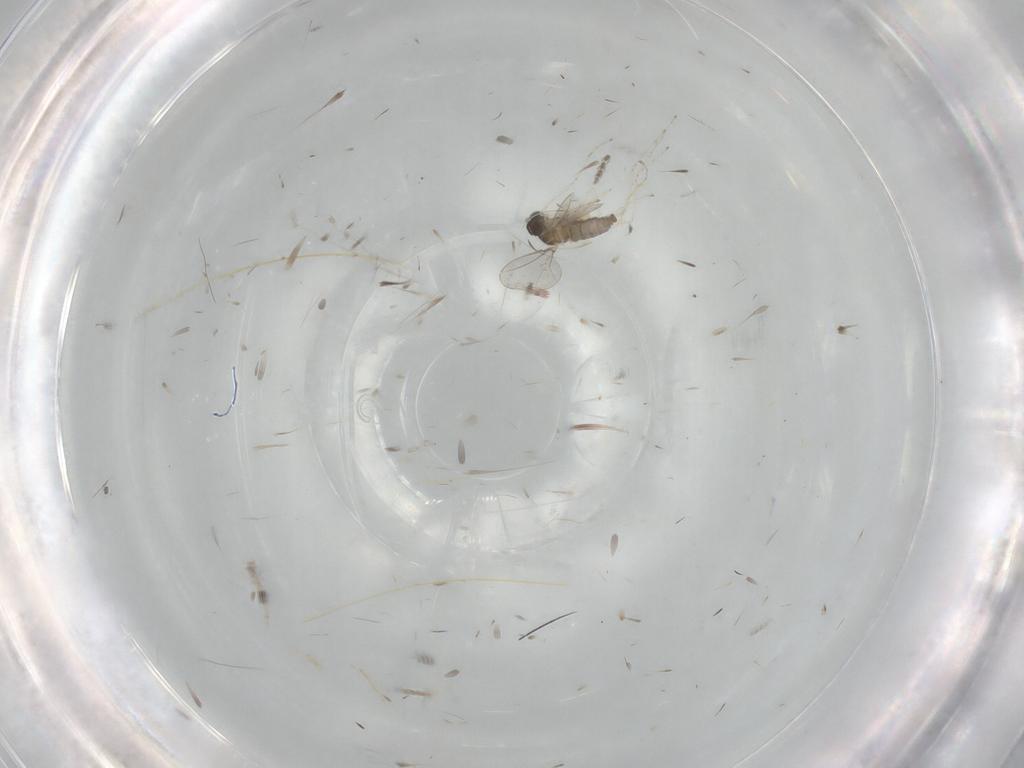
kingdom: Animalia
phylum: Arthropoda
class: Insecta
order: Diptera
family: Cecidomyiidae
